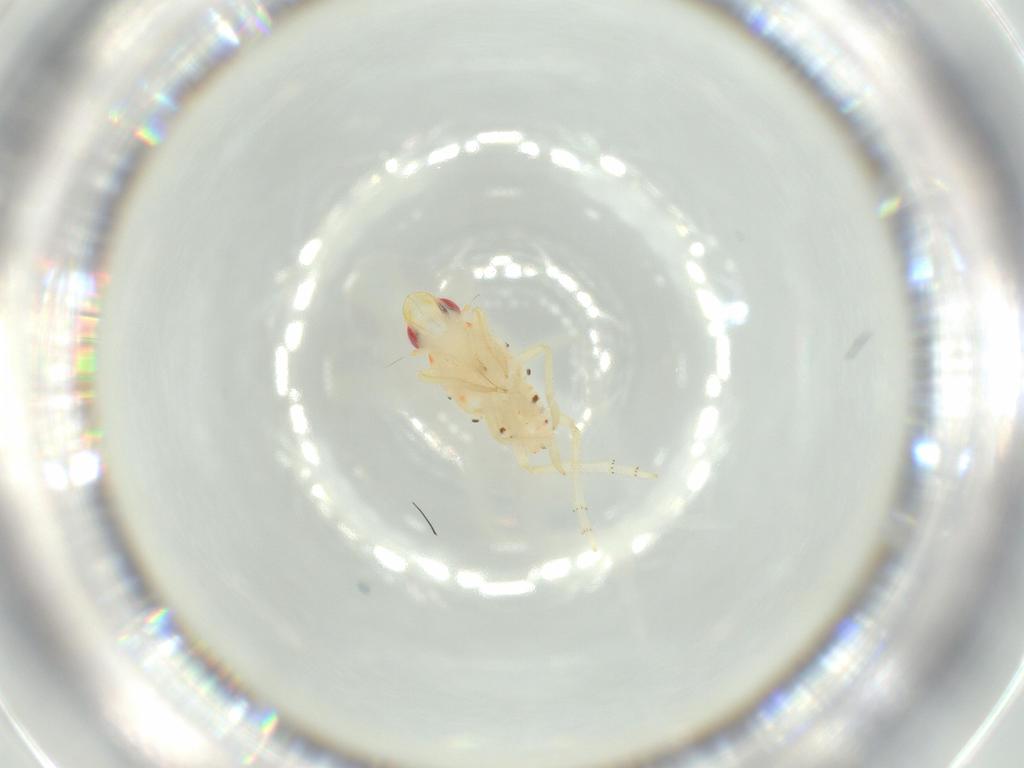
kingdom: Animalia
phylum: Arthropoda
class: Insecta
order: Hemiptera
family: Tropiduchidae
